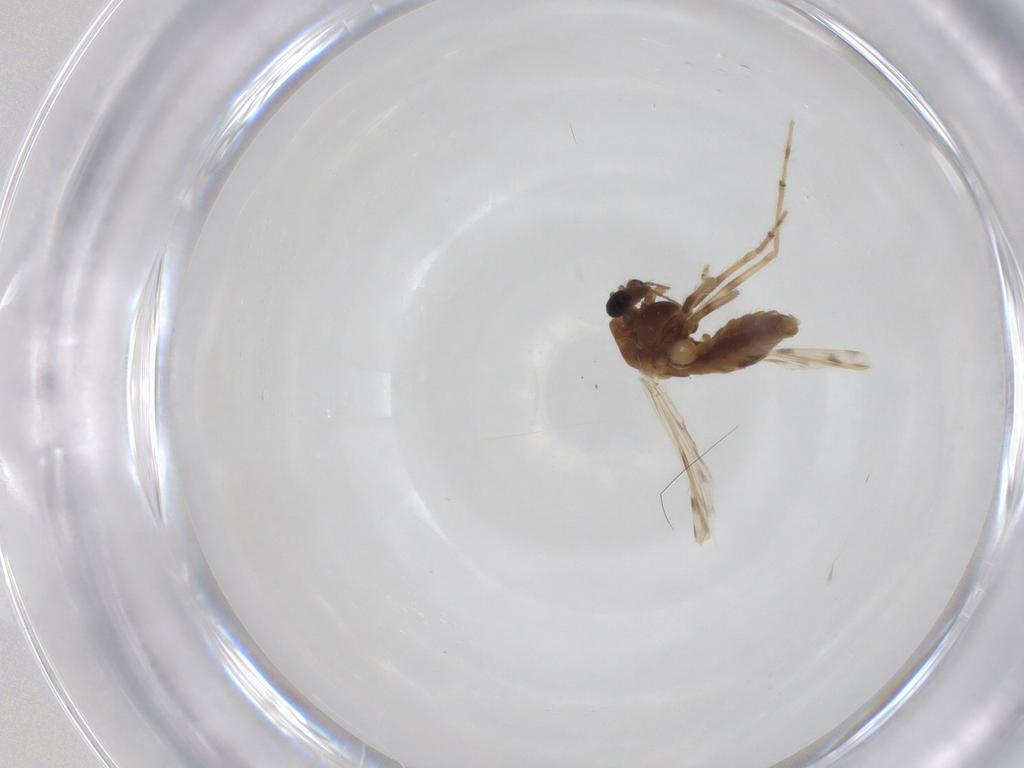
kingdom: Animalia
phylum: Arthropoda
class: Insecta
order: Diptera
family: Chironomidae
